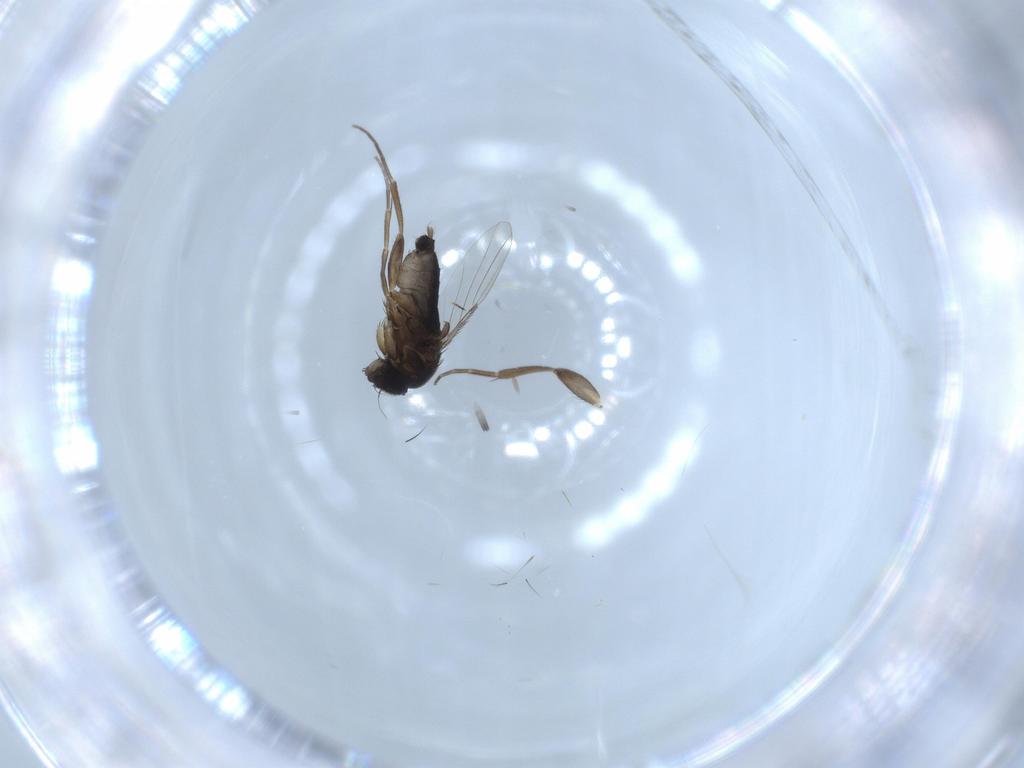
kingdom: Animalia
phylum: Arthropoda
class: Insecta
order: Diptera
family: Phoridae
